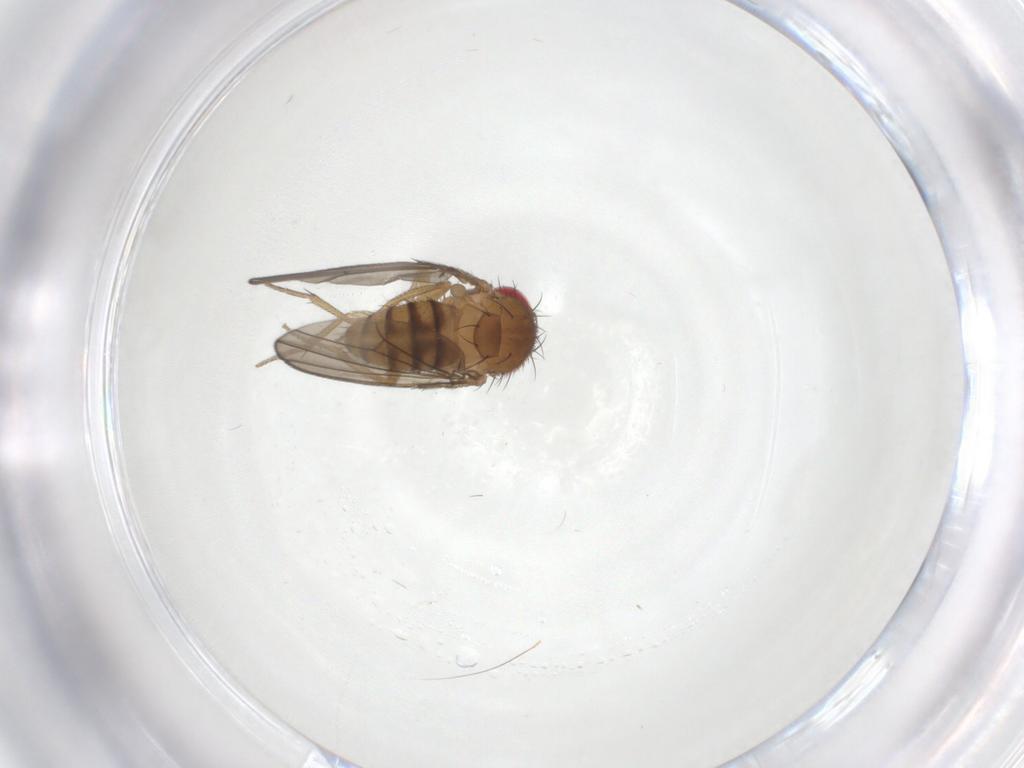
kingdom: Animalia
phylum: Arthropoda
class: Insecta
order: Diptera
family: Drosophilidae
